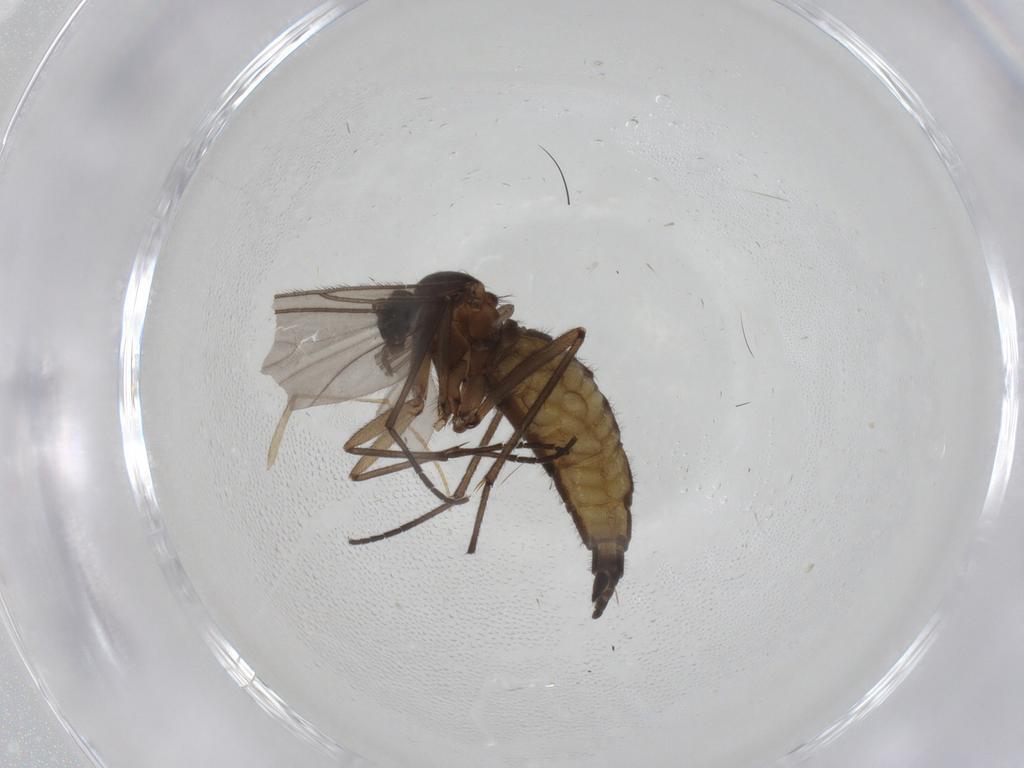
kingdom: Animalia
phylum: Arthropoda
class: Insecta
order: Diptera
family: Sciaridae
